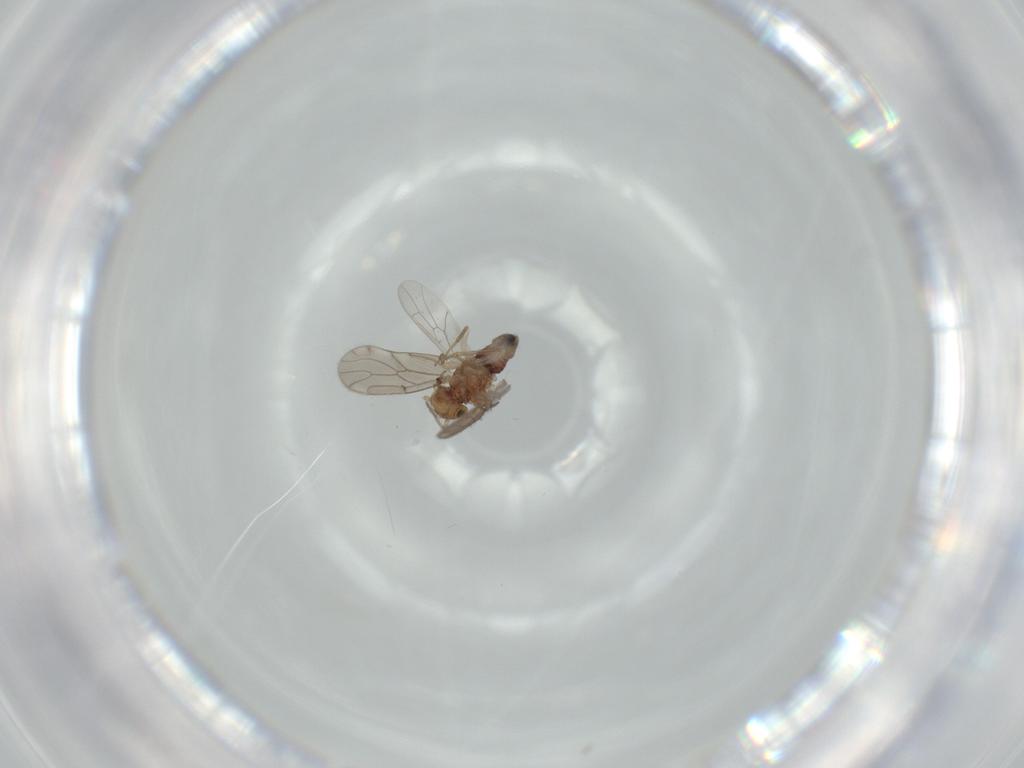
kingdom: Animalia
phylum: Arthropoda
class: Insecta
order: Psocodea
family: Ectopsocidae
